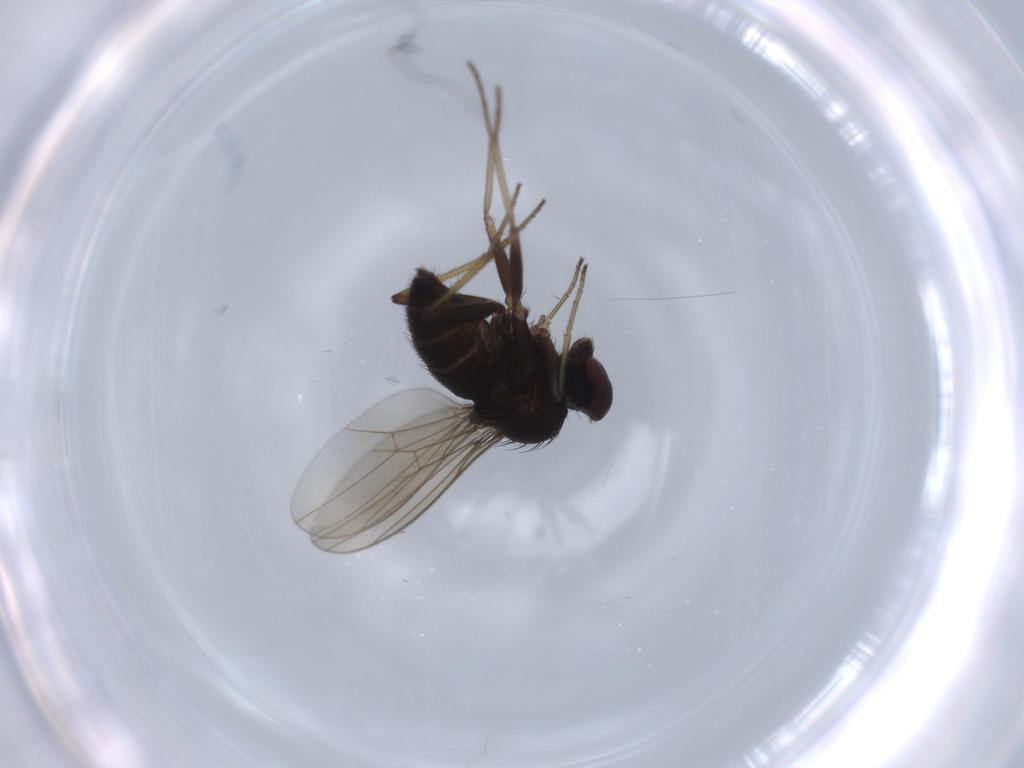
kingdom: Animalia
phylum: Arthropoda
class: Insecta
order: Diptera
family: Dolichopodidae
